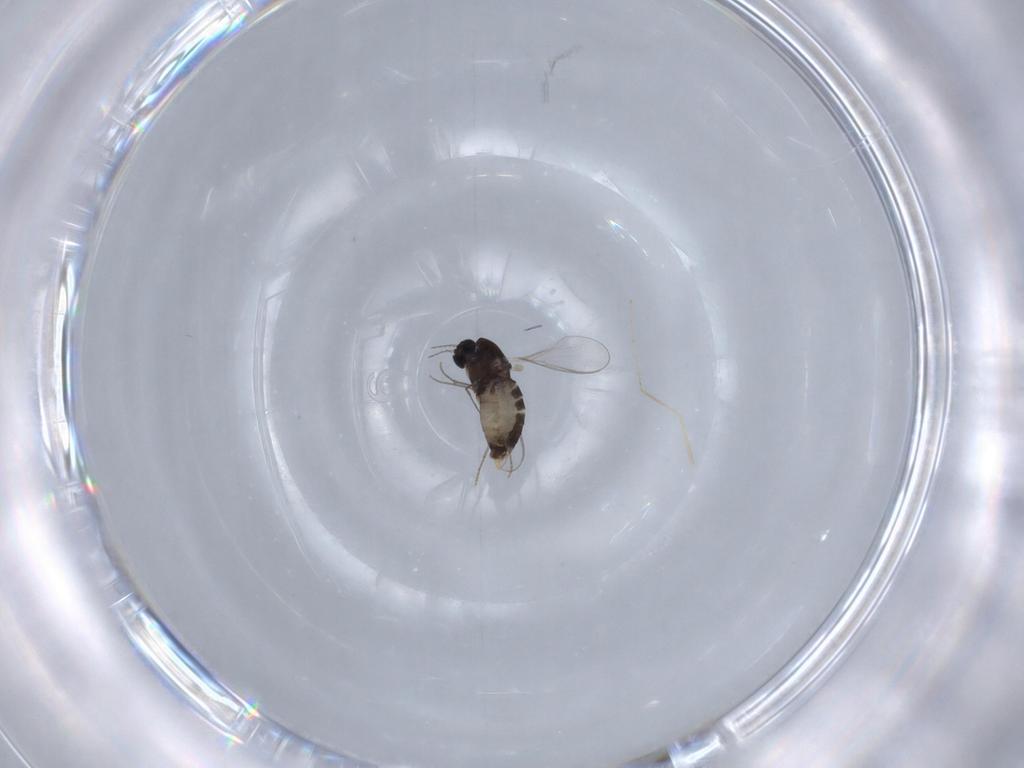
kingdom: Animalia
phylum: Arthropoda
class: Insecta
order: Diptera
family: Chironomidae
